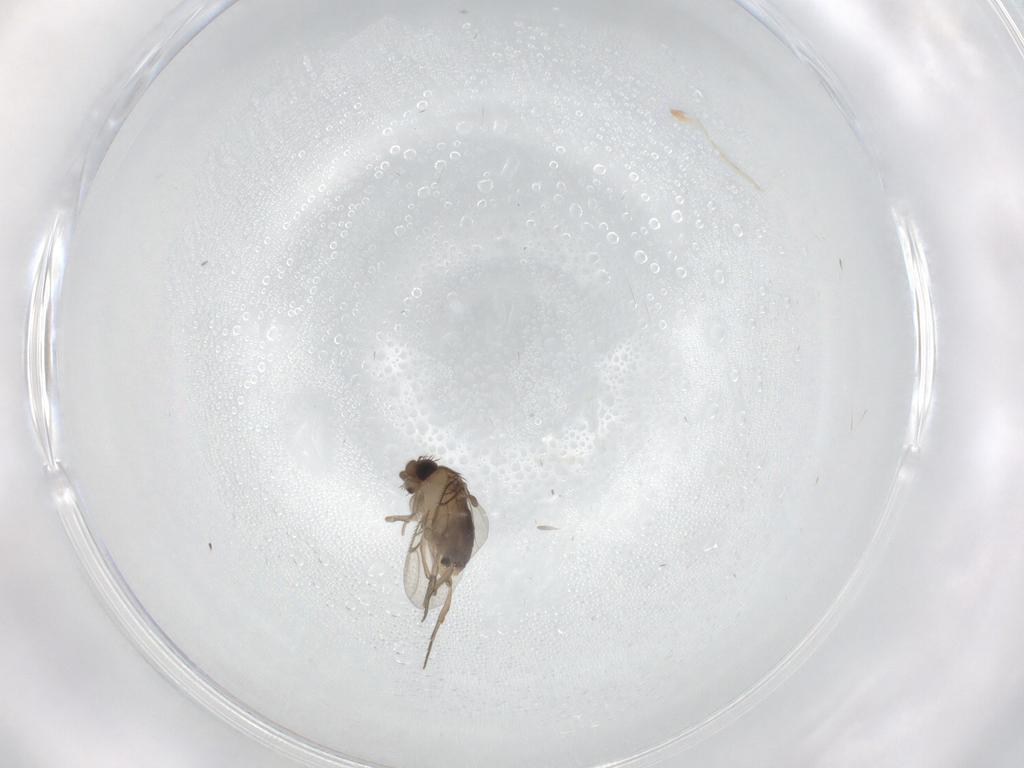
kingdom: Animalia
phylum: Arthropoda
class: Insecta
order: Diptera
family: Phoridae
